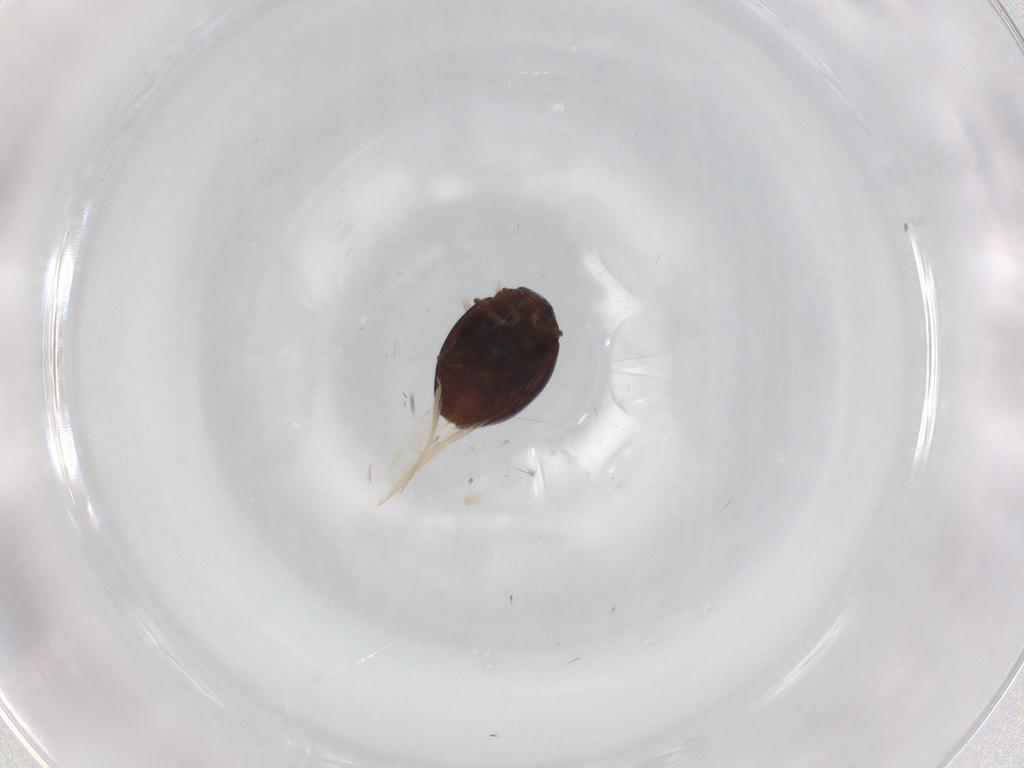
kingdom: Animalia
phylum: Arthropoda
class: Insecta
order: Coleoptera
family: Coccinellidae
